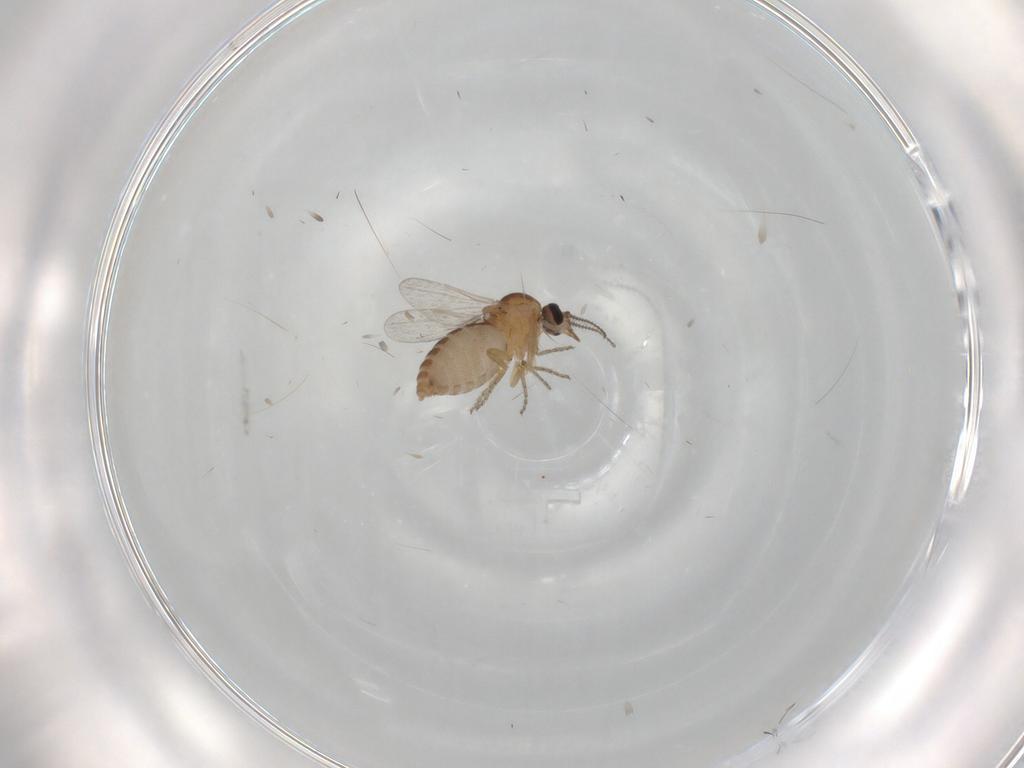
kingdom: Animalia
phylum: Arthropoda
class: Insecta
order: Diptera
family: Ceratopogonidae
